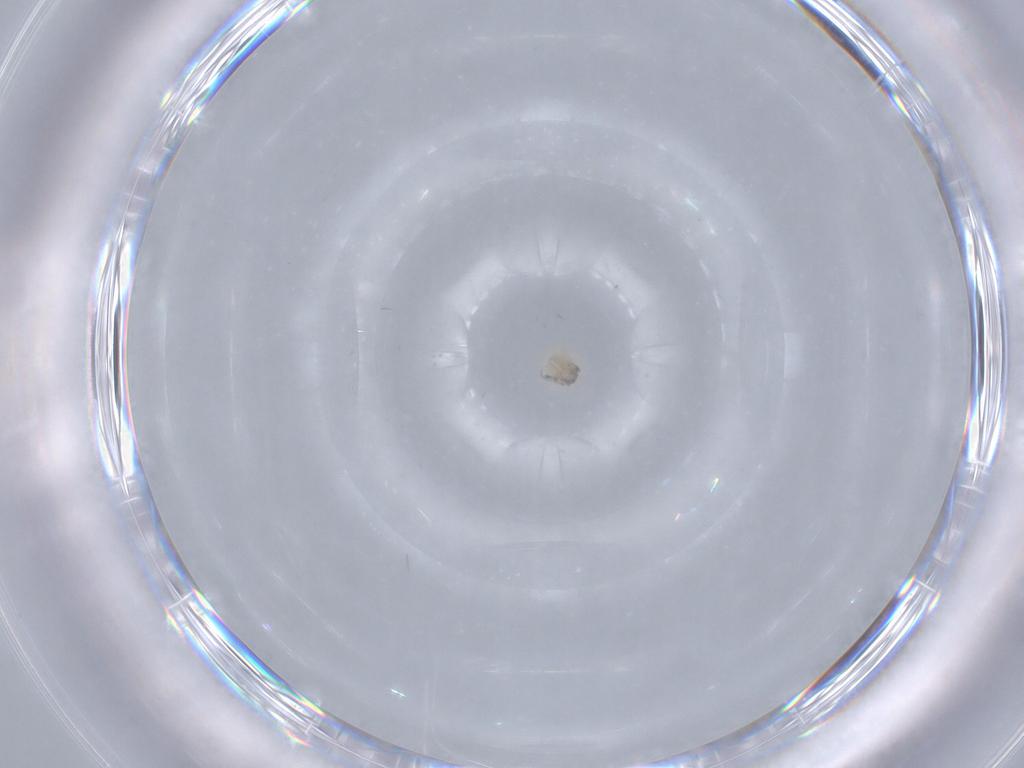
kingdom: Animalia
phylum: Arthropoda
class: Arachnida
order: Trombidiformes
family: Pionidae
